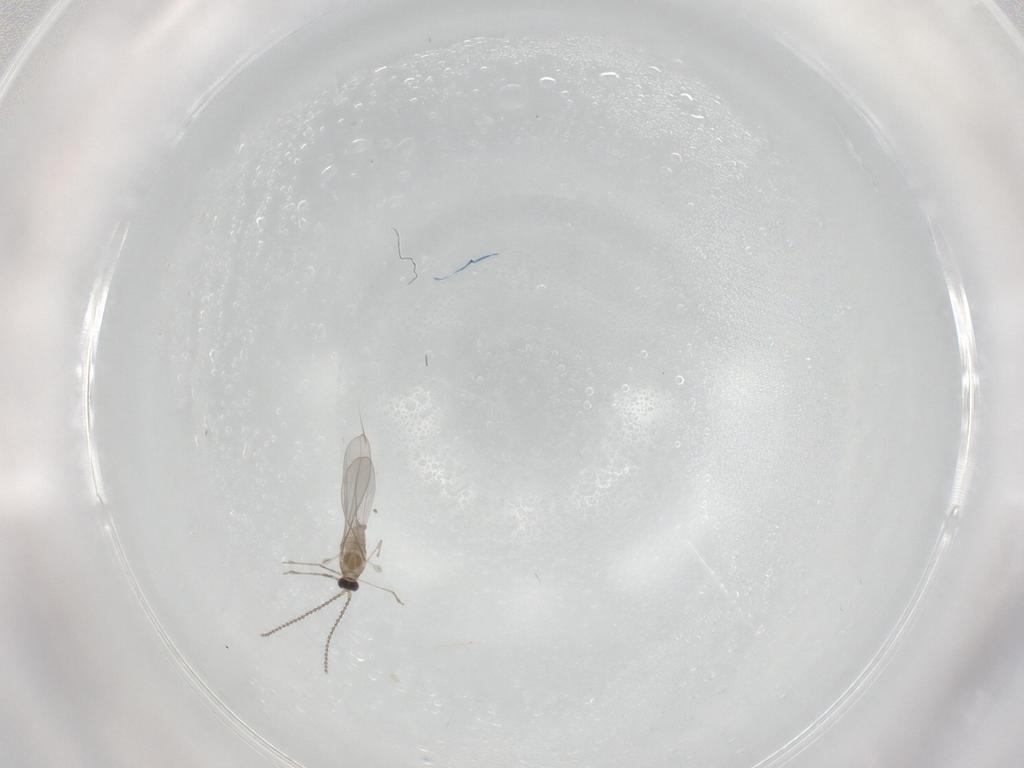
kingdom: Animalia
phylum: Arthropoda
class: Insecta
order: Diptera
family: Cecidomyiidae
